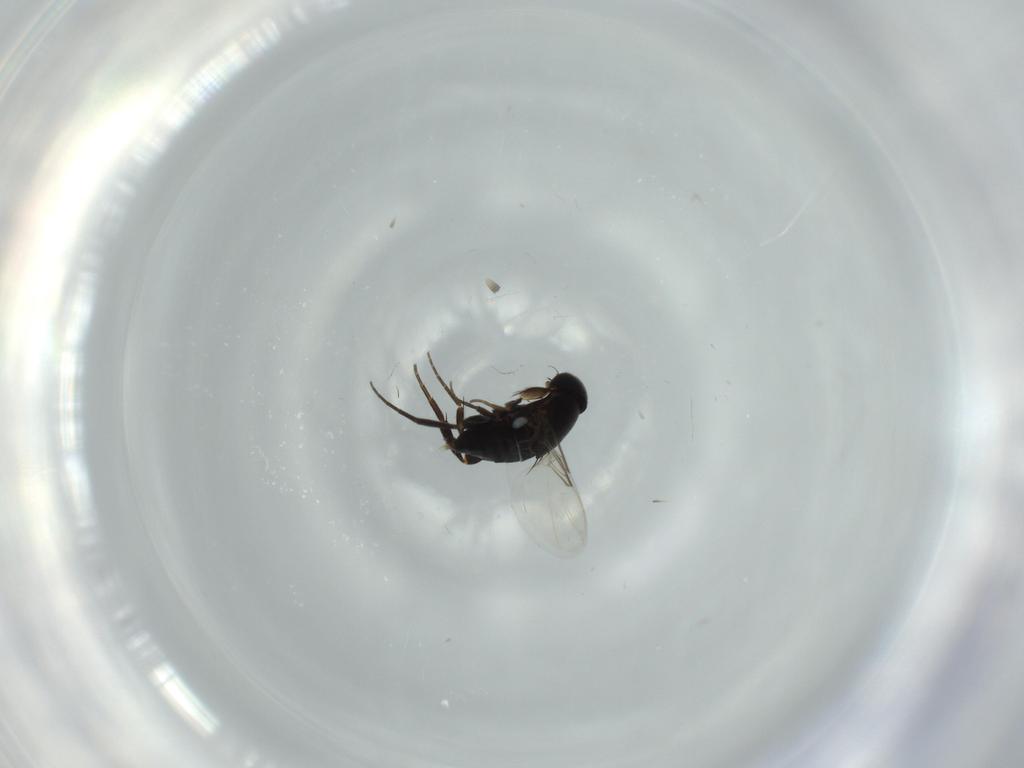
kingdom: Animalia
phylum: Arthropoda
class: Insecta
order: Diptera
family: Phoridae
